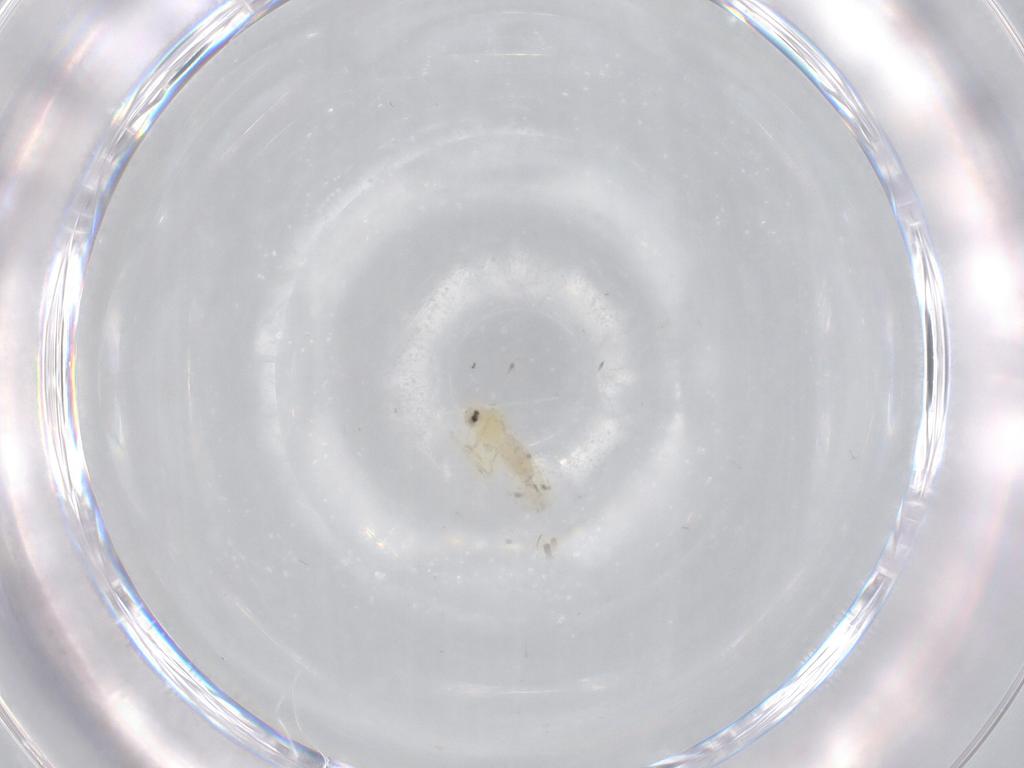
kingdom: Animalia
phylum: Arthropoda
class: Insecta
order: Hemiptera
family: Aleyrodidae
